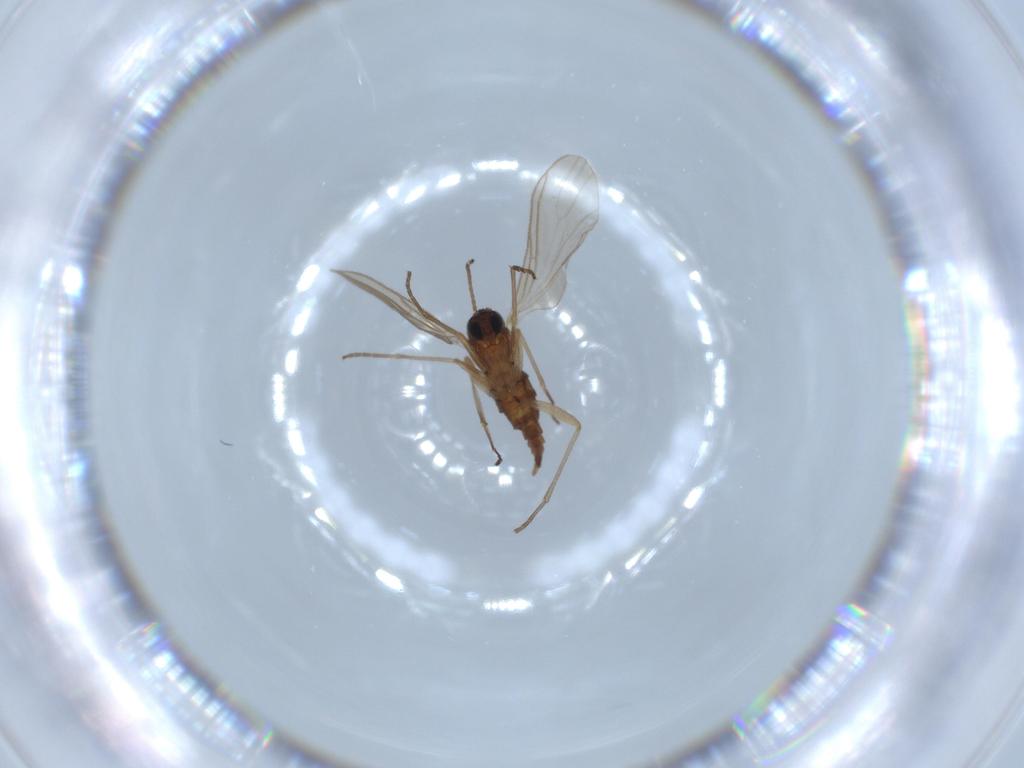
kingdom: Animalia
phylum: Arthropoda
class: Insecta
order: Diptera
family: Sciaridae
